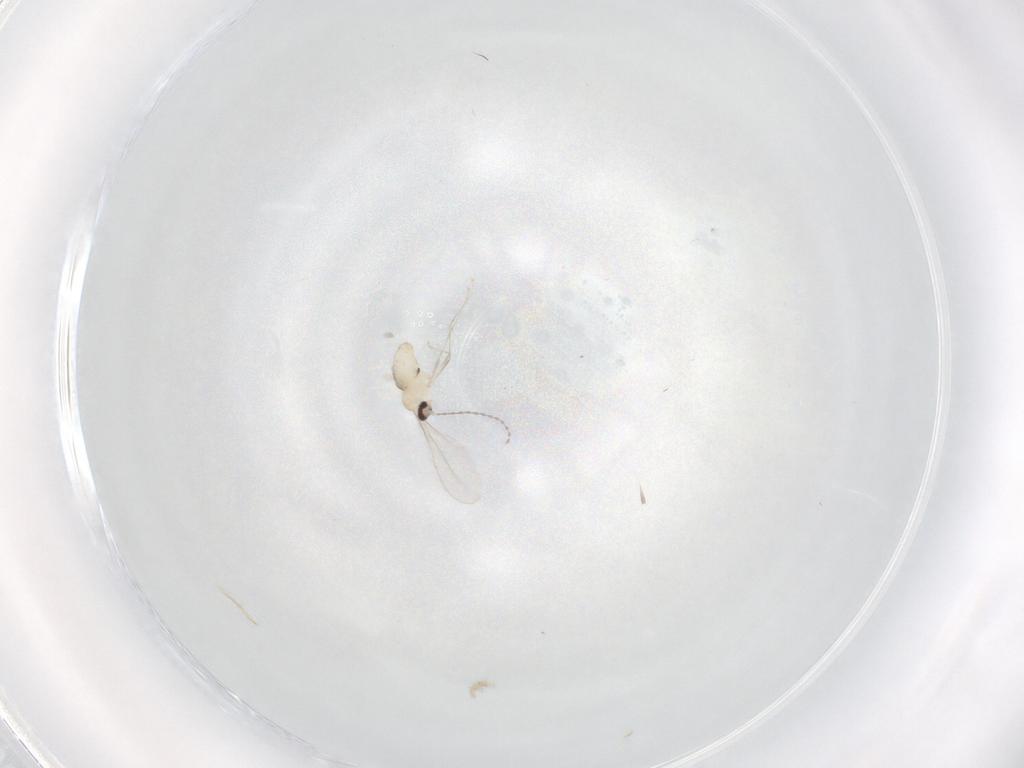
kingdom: Animalia
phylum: Arthropoda
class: Insecta
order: Diptera
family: Cecidomyiidae
